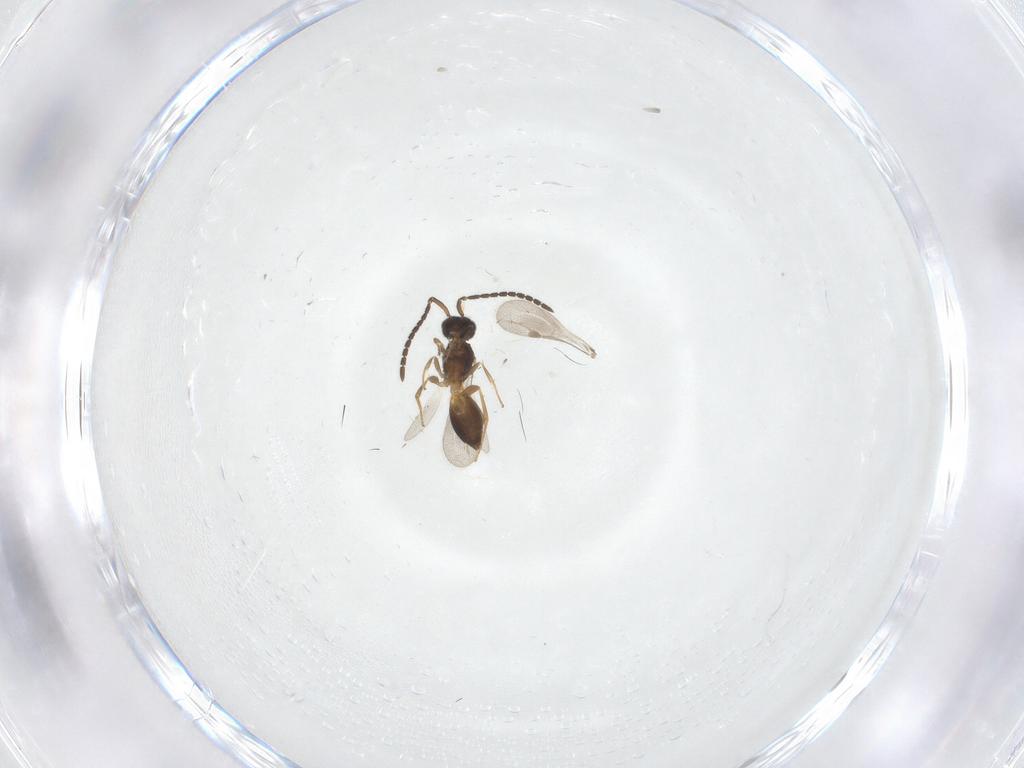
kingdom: Animalia
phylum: Arthropoda
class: Insecta
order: Hymenoptera
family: Megaspilidae
